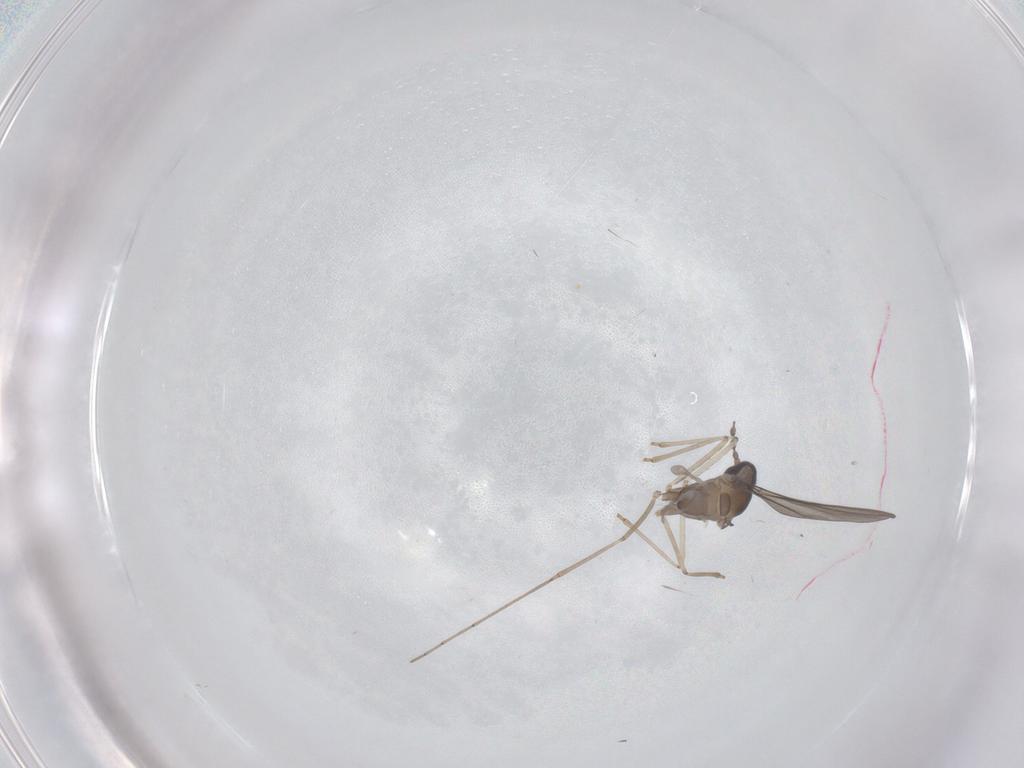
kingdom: Animalia
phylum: Arthropoda
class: Insecta
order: Diptera
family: Cecidomyiidae
